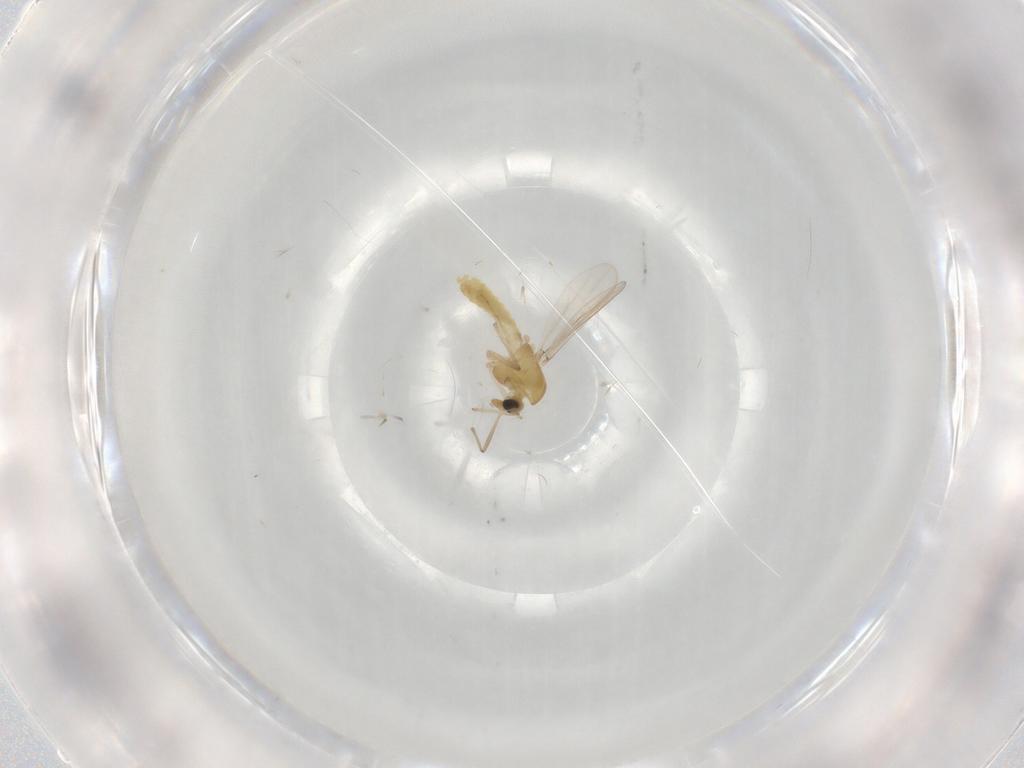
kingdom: Animalia
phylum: Arthropoda
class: Insecta
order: Diptera
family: Chironomidae
